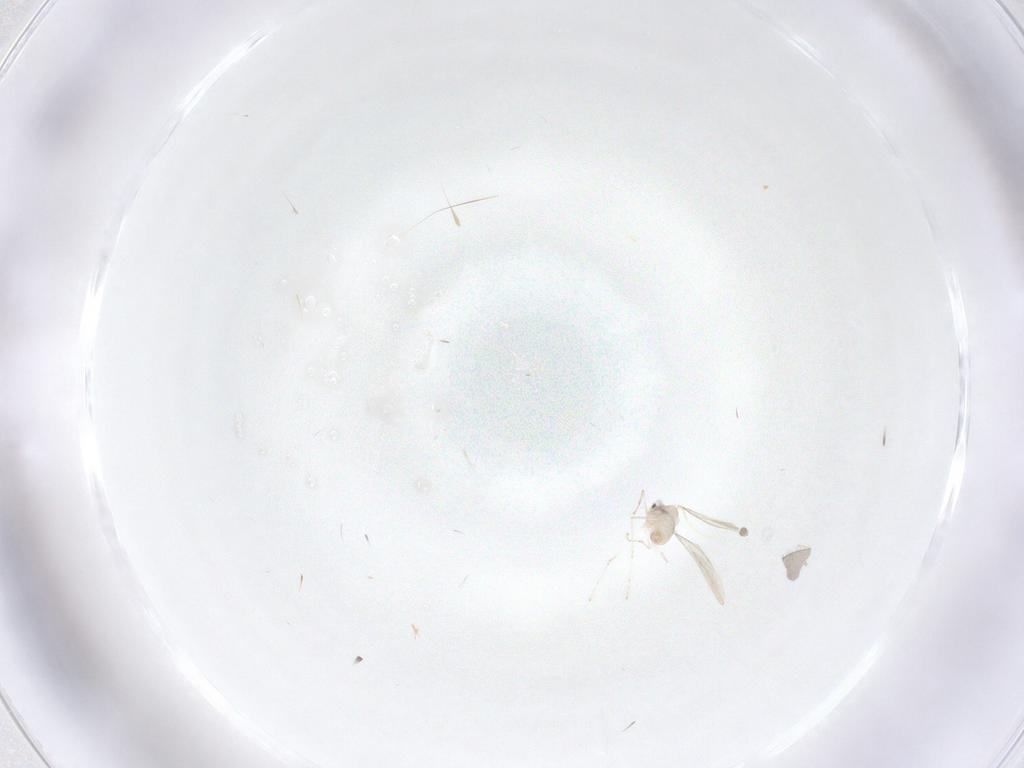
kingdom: Animalia
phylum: Arthropoda
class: Insecta
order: Diptera
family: Cecidomyiidae
